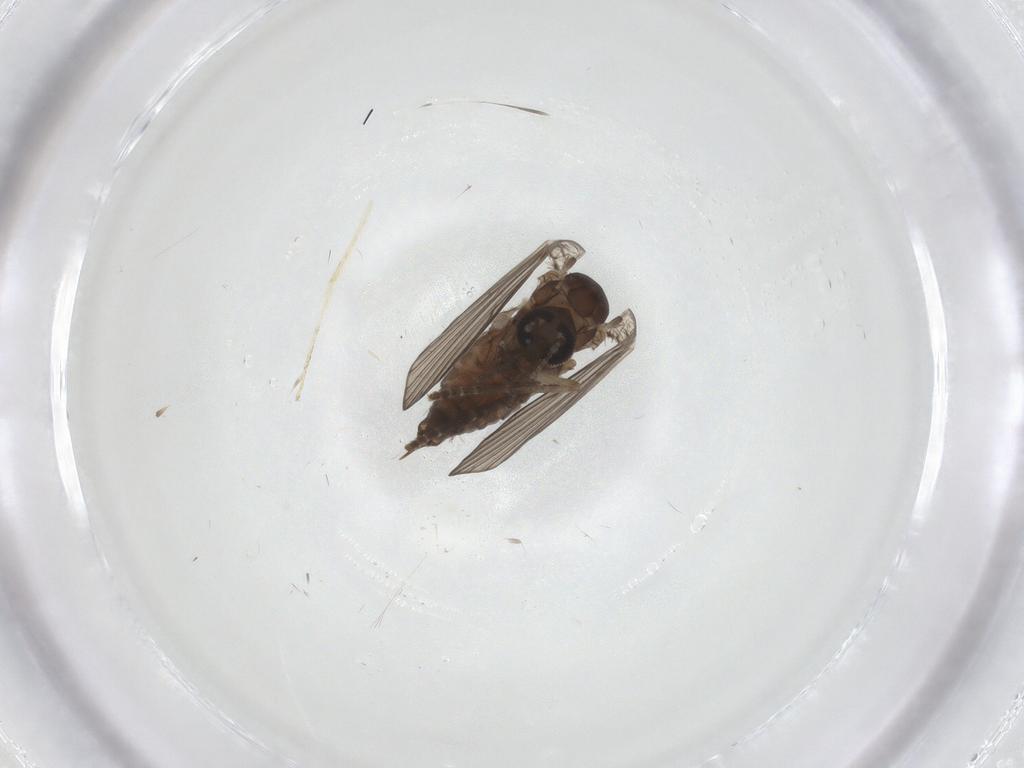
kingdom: Animalia
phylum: Arthropoda
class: Insecta
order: Diptera
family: Psychodidae
